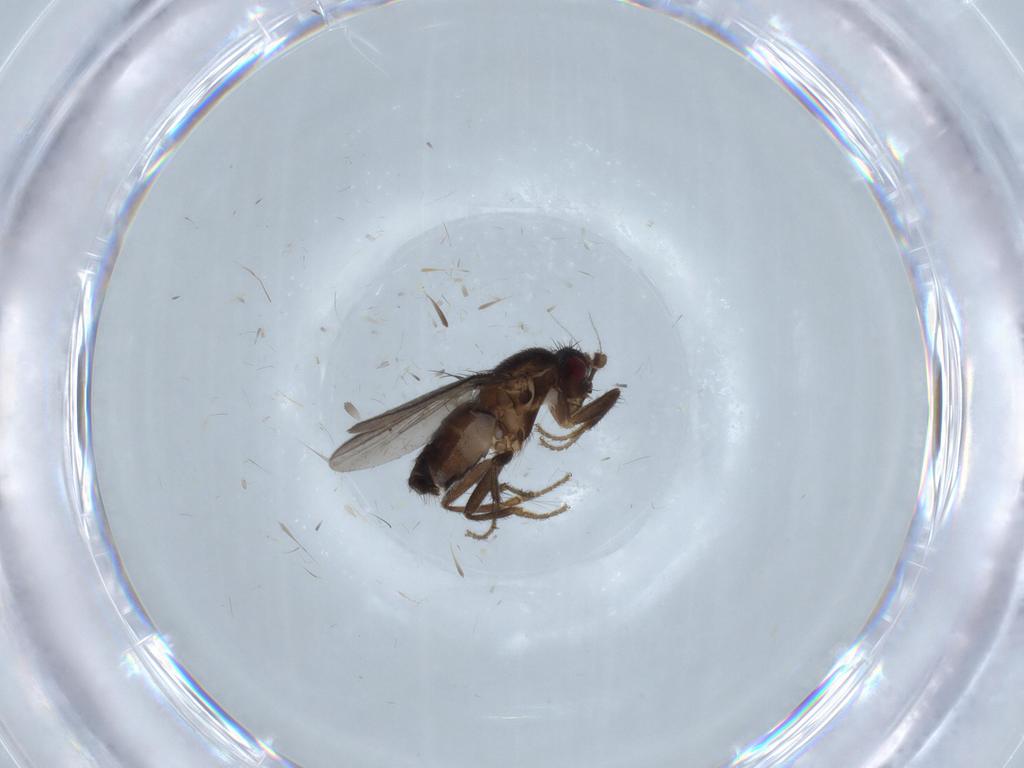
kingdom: Animalia
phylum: Arthropoda
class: Insecta
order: Diptera
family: Sphaeroceridae
